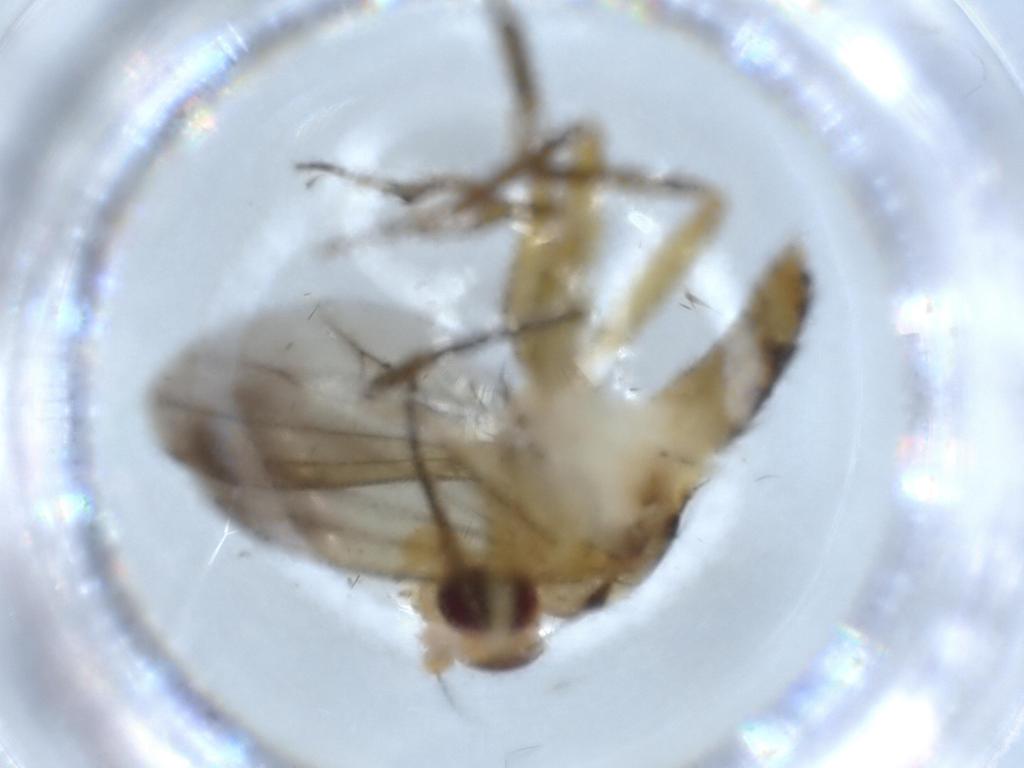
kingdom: Animalia
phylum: Arthropoda
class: Insecta
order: Diptera
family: Clusiidae
